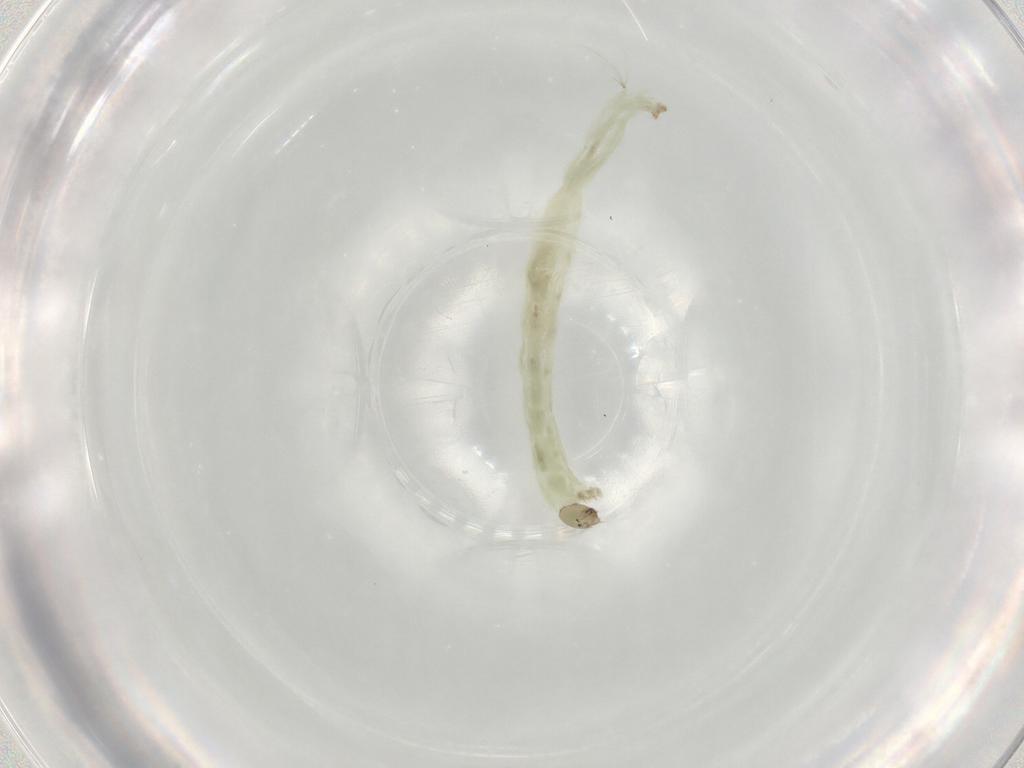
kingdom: Animalia
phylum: Arthropoda
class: Insecta
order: Diptera
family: Chironomidae
